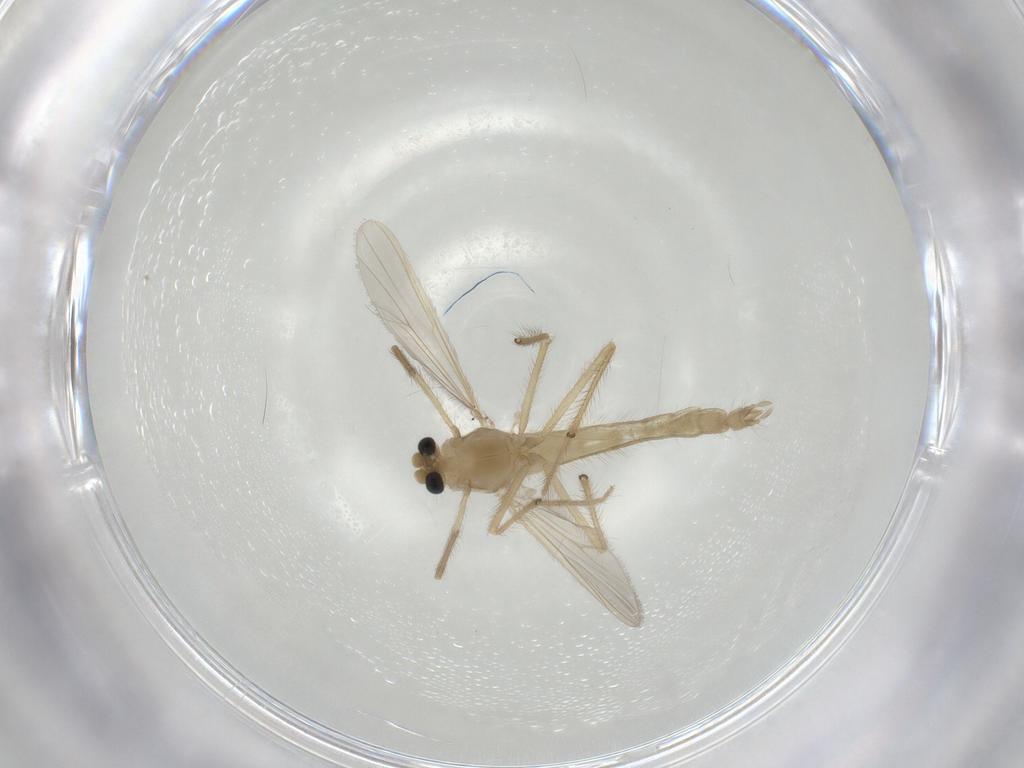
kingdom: Animalia
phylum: Arthropoda
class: Insecta
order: Diptera
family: Chironomidae
